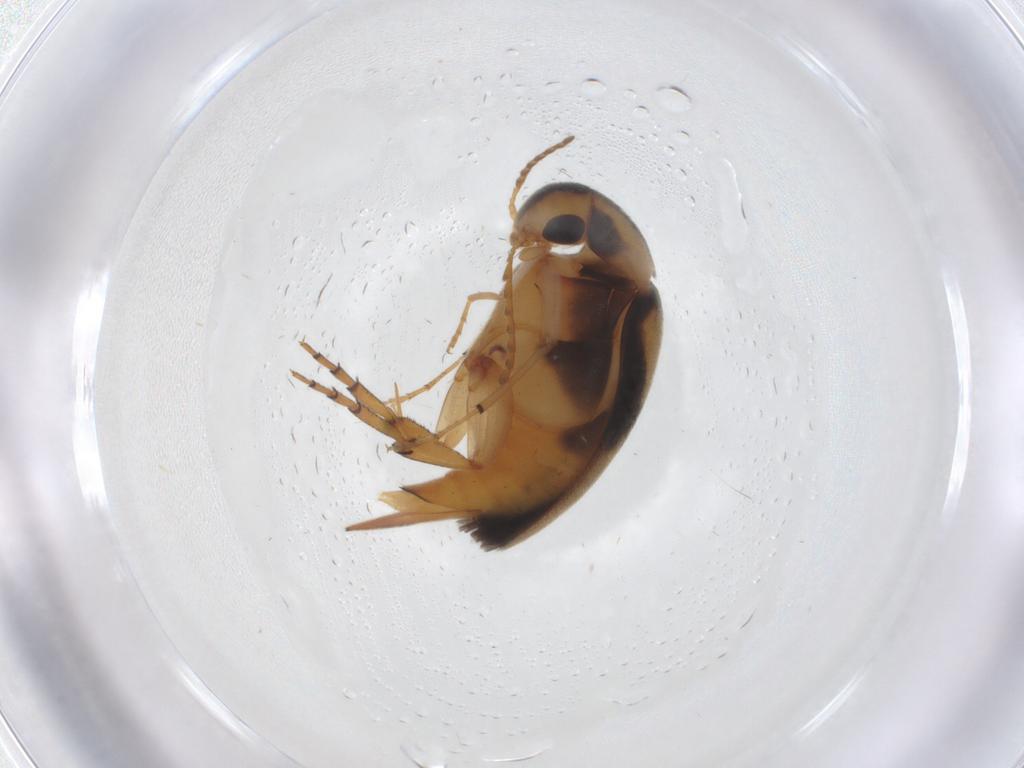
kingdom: Animalia
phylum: Arthropoda
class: Insecta
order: Coleoptera
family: Mordellidae
